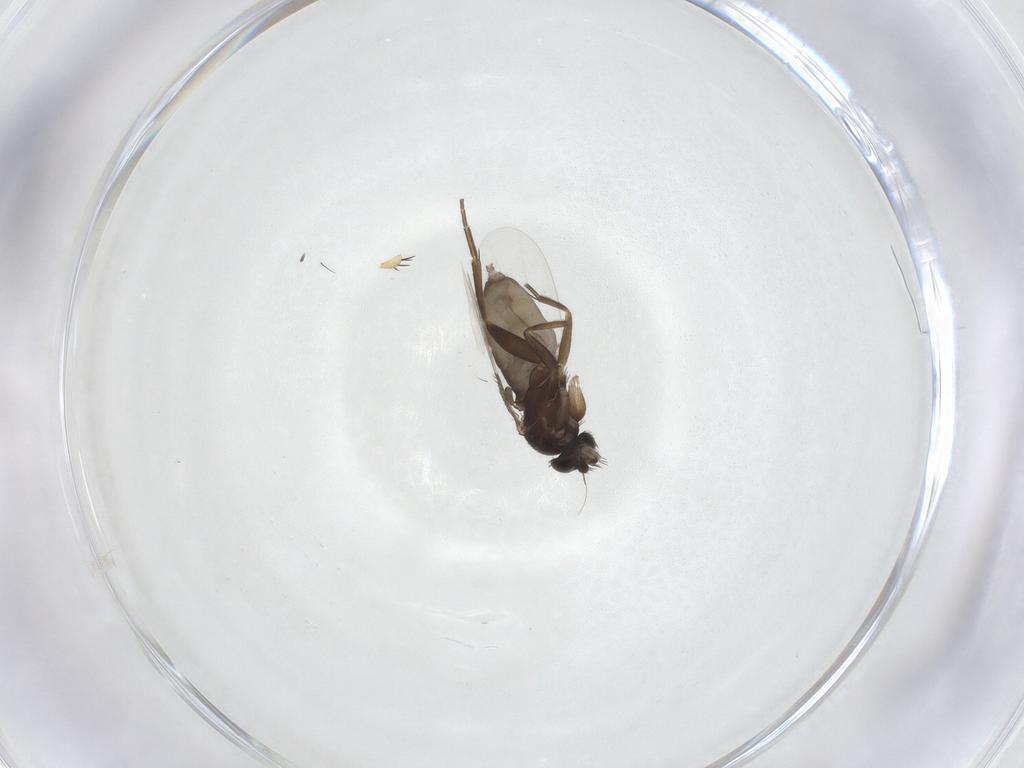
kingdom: Animalia
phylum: Arthropoda
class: Insecta
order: Diptera
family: Phoridae
